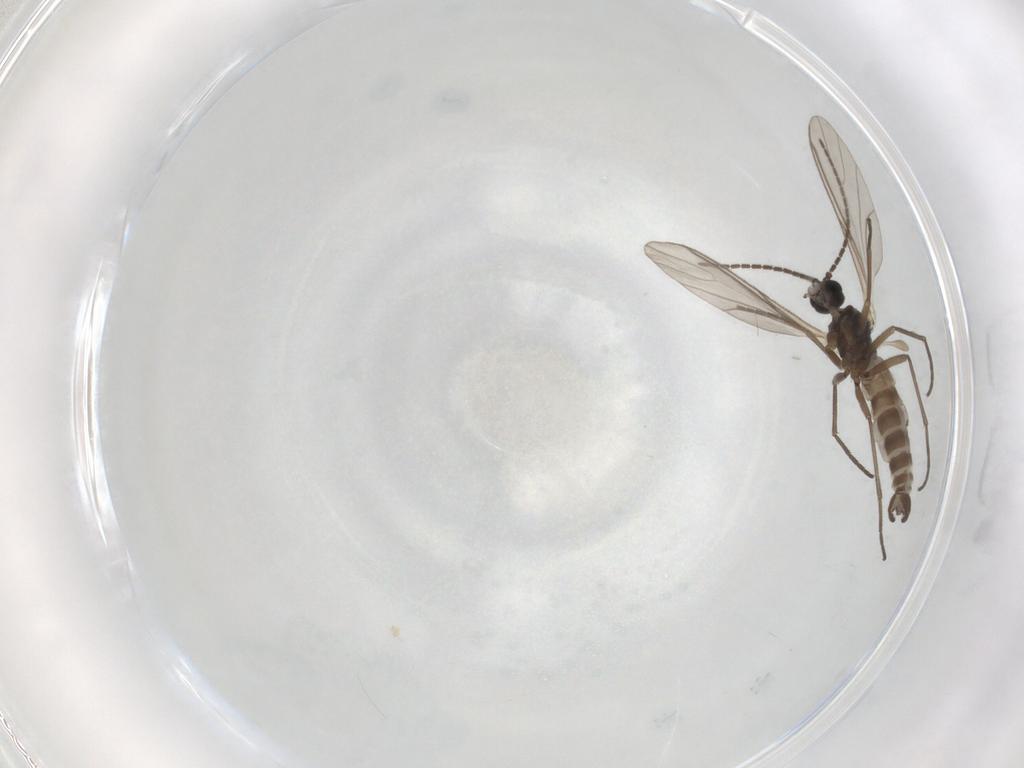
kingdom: Animalia
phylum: Arthropoda
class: Insecta
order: Diptera
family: Sciaridae
